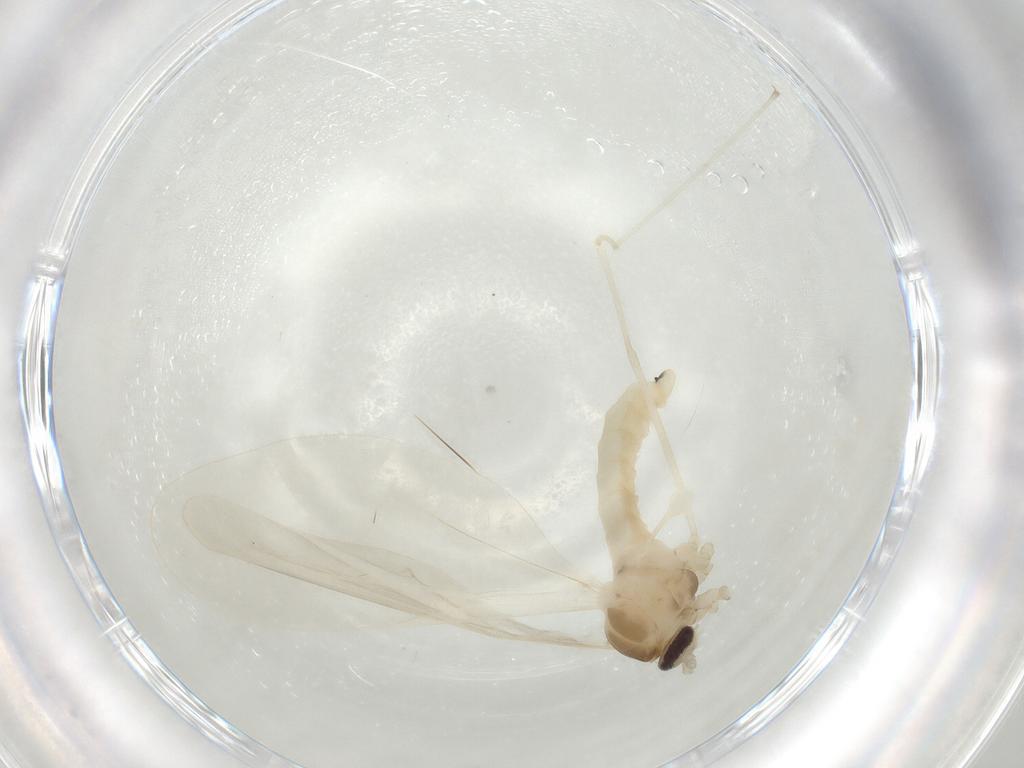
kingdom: Animalia
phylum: Arthropoda
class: Insecta
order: Diptera
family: Cecidomyiidae
